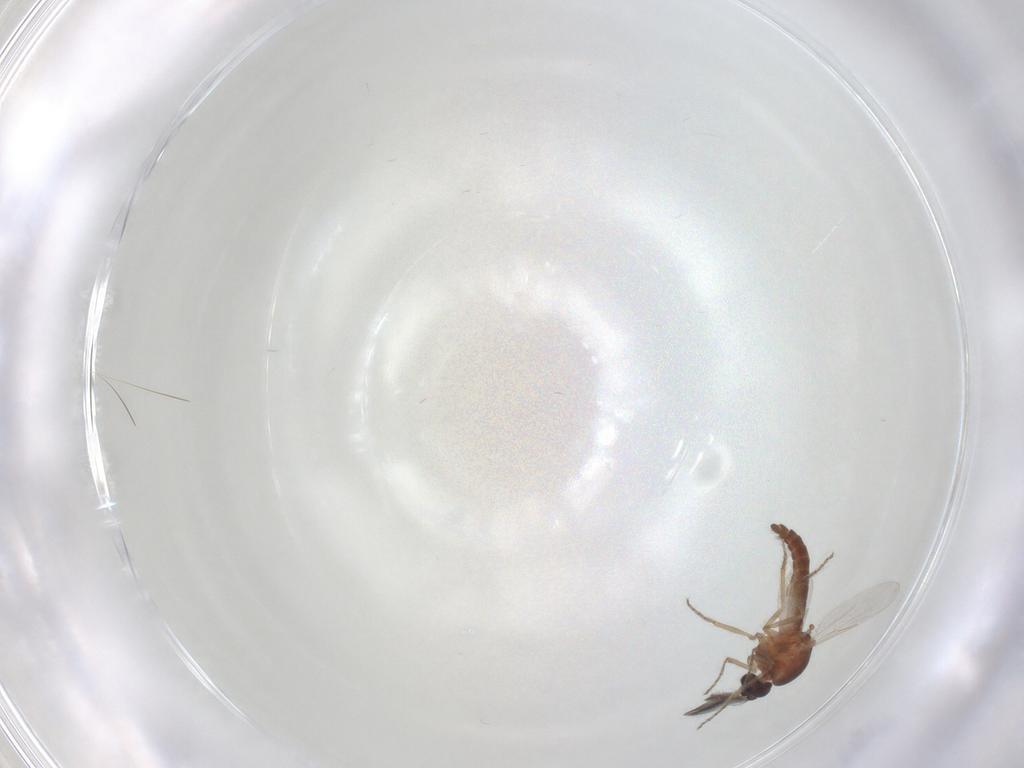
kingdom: Animalia
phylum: Arthropoda
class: Insecta
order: Diptera
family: Ceratopogonidae
